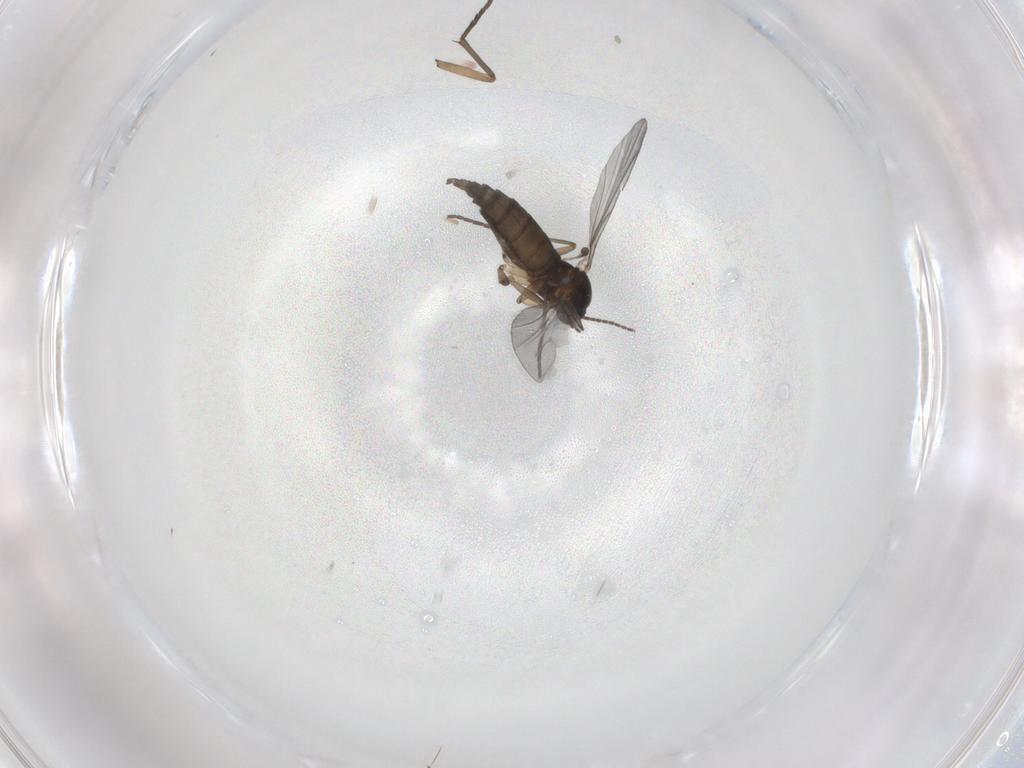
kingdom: Animalia
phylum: Arthropoda
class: Insecta
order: Diptera
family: Sciaridae
